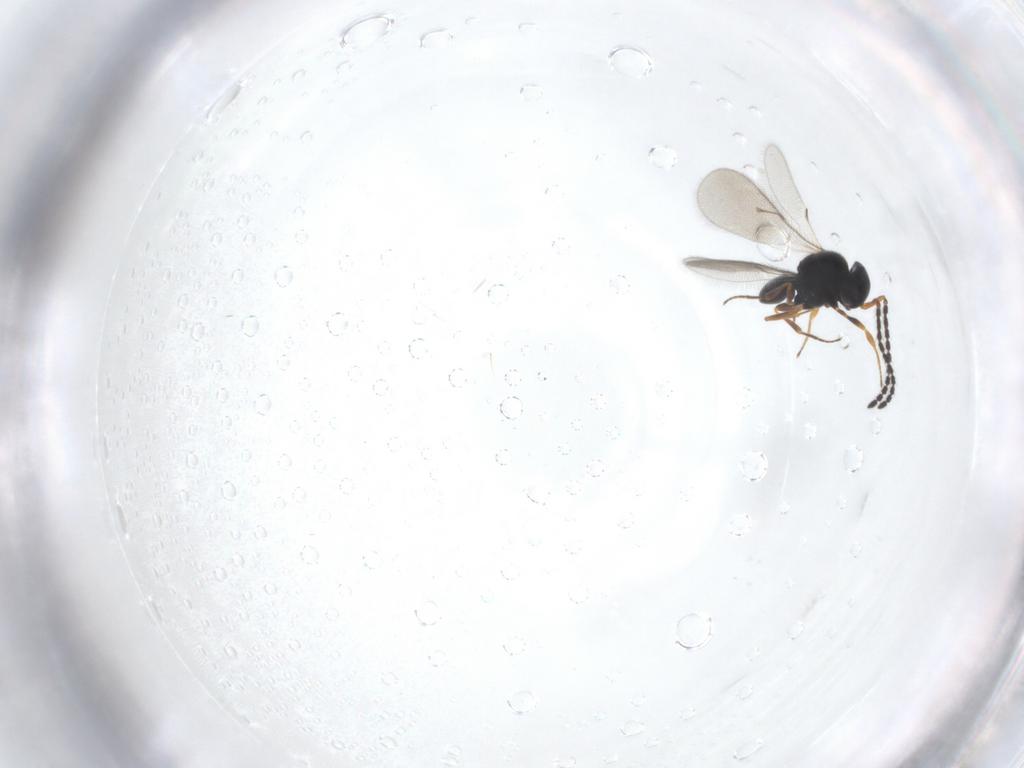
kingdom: Animalia
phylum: Arthropoda
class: Insecta
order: Hymenoptera
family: Scelionidae
